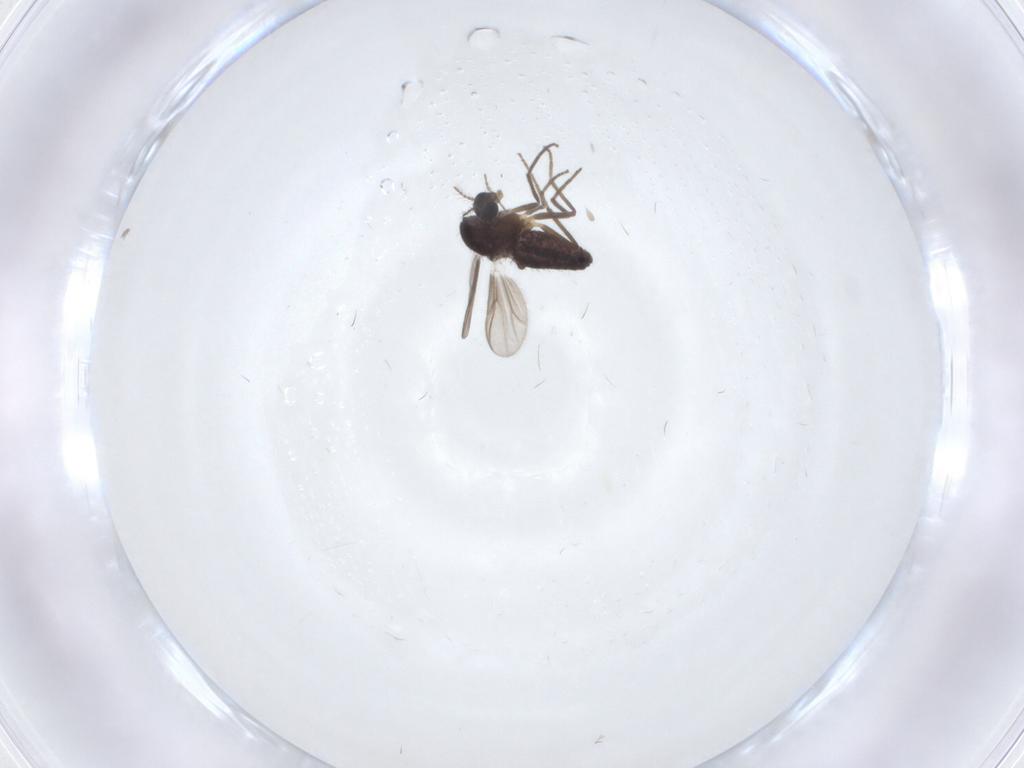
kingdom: Animalia
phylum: Arthropoda
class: Insecta
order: Diptera
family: Chironomidae
